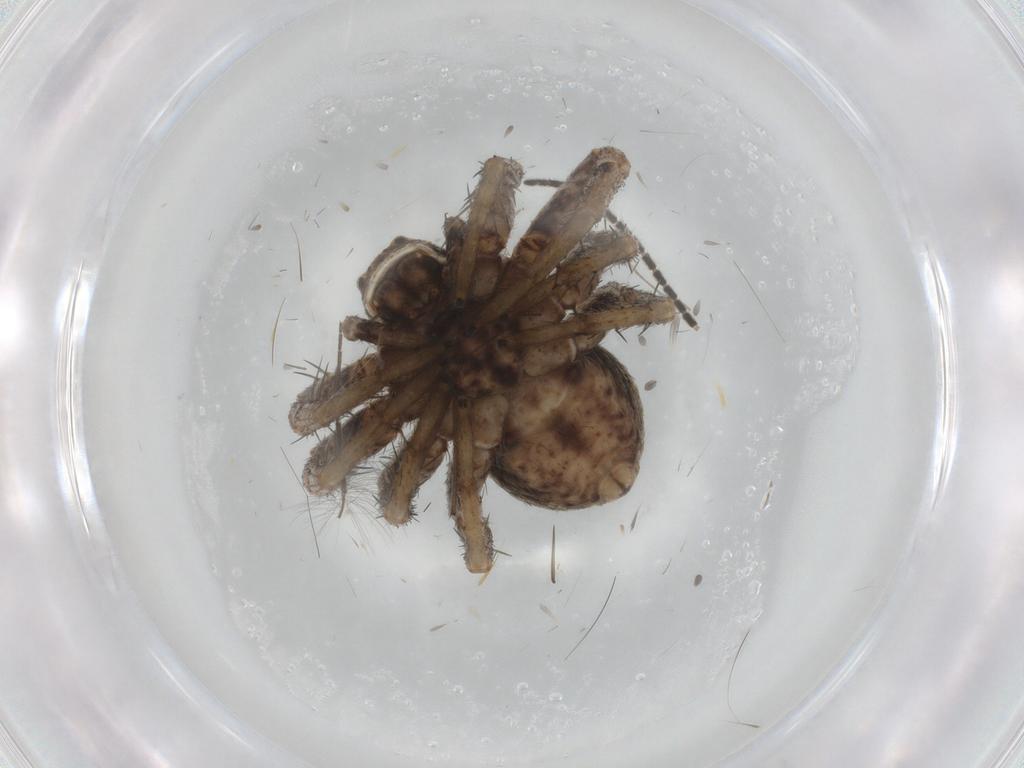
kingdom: Animalia
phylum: Arthropoda
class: Arachnida
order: Araneae
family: Philodromidae
